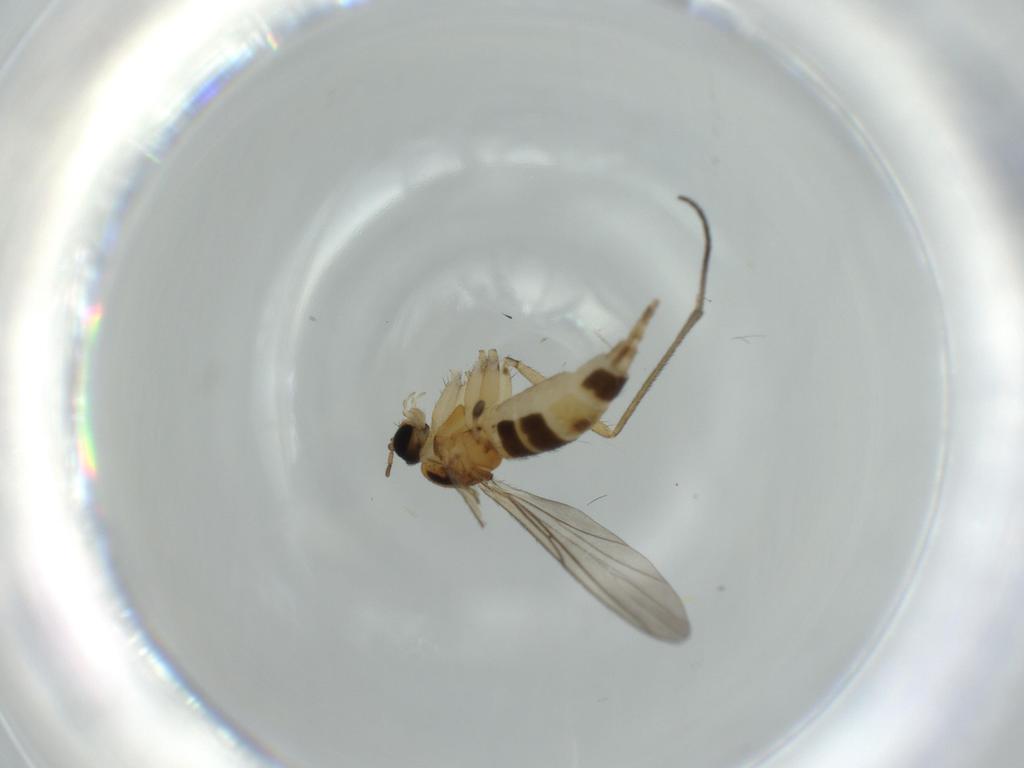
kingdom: Animalia
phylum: Arthropoda
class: Insecta
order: Diptera
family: Sciaridae
